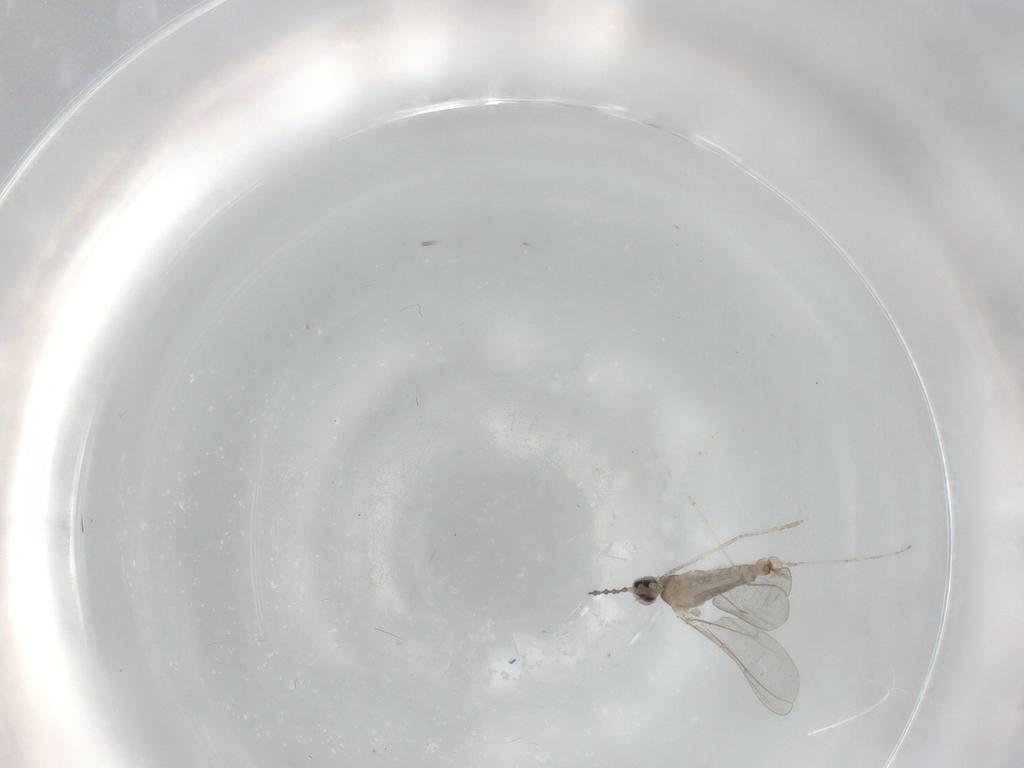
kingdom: Animalia
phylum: Arthropoda
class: Insecta
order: Diptera
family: Cecidomyiidae
